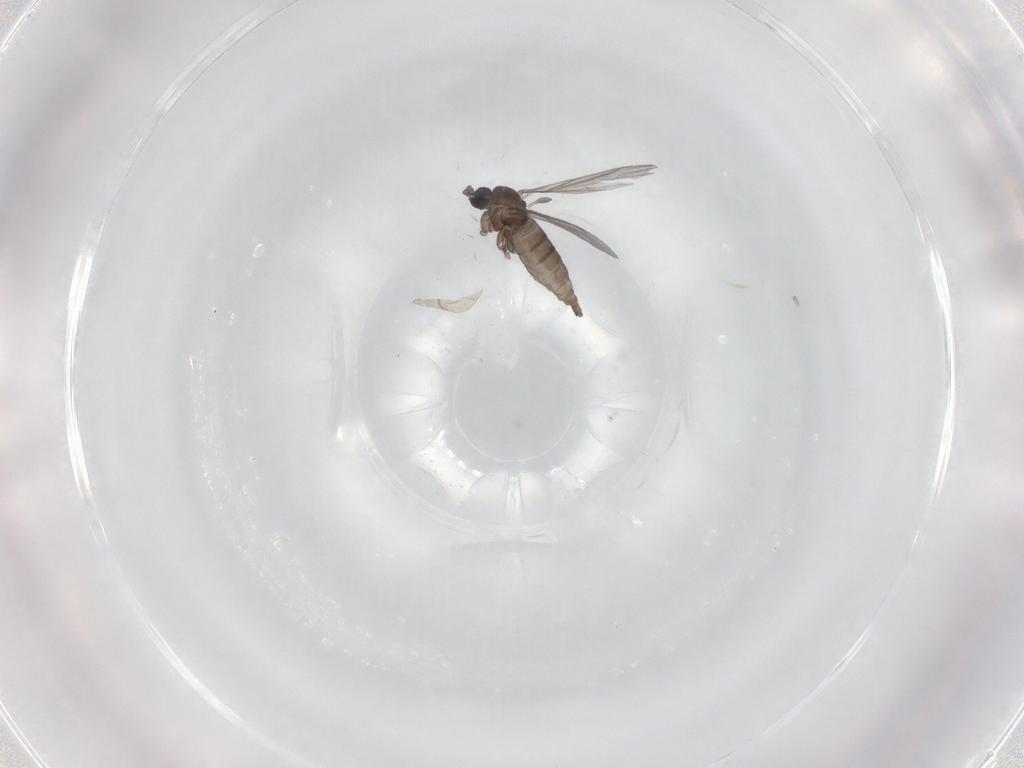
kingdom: Animalia
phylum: Arthropoda
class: Insecta
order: Diptera
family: Sciaridae
